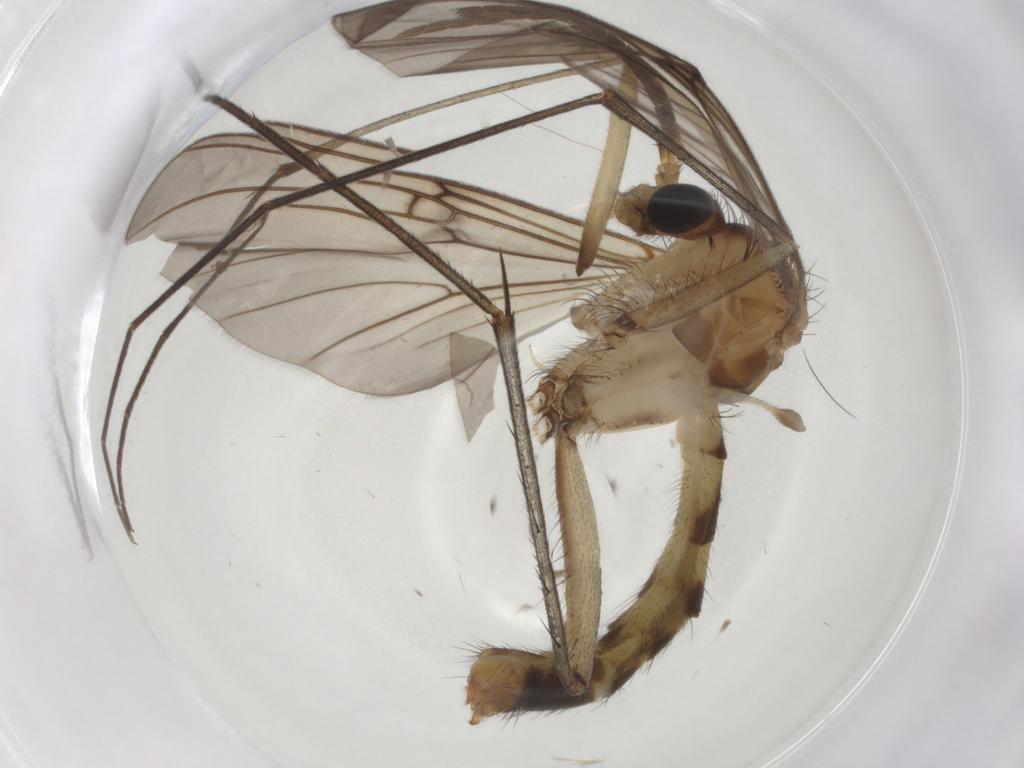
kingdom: Animalia
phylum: Arthropoda
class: Insecta
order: Diptera
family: Mycetophilidae
